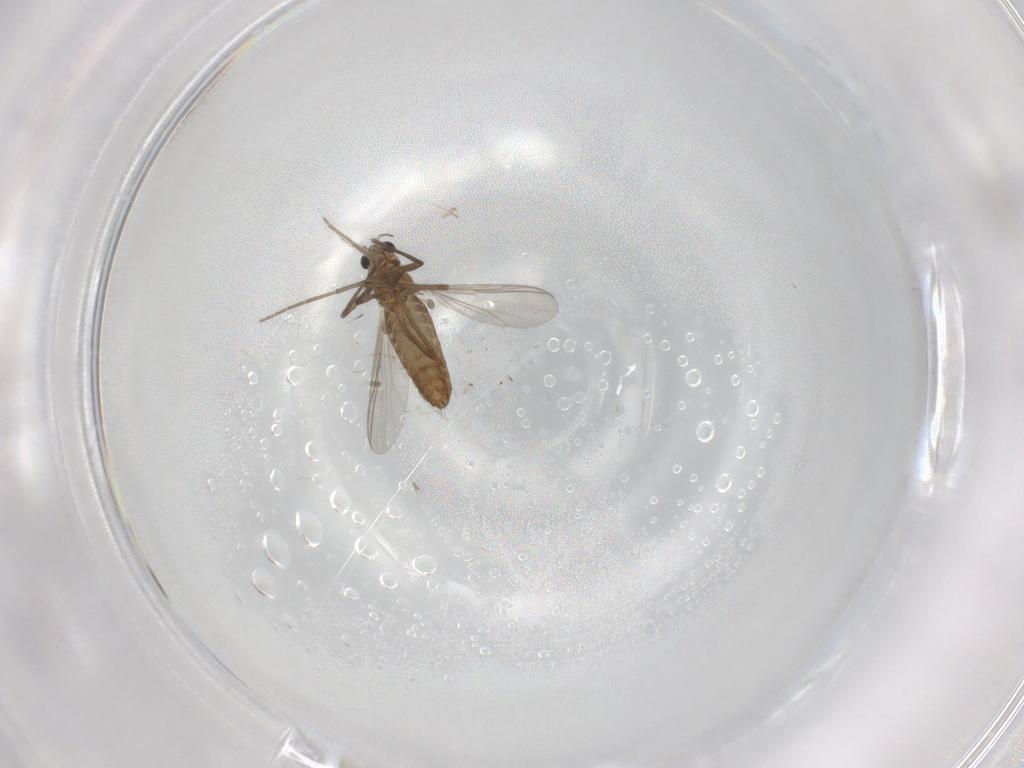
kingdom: Animalia
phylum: Arthropoda
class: Insecta
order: Diptera
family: Chironomidae
